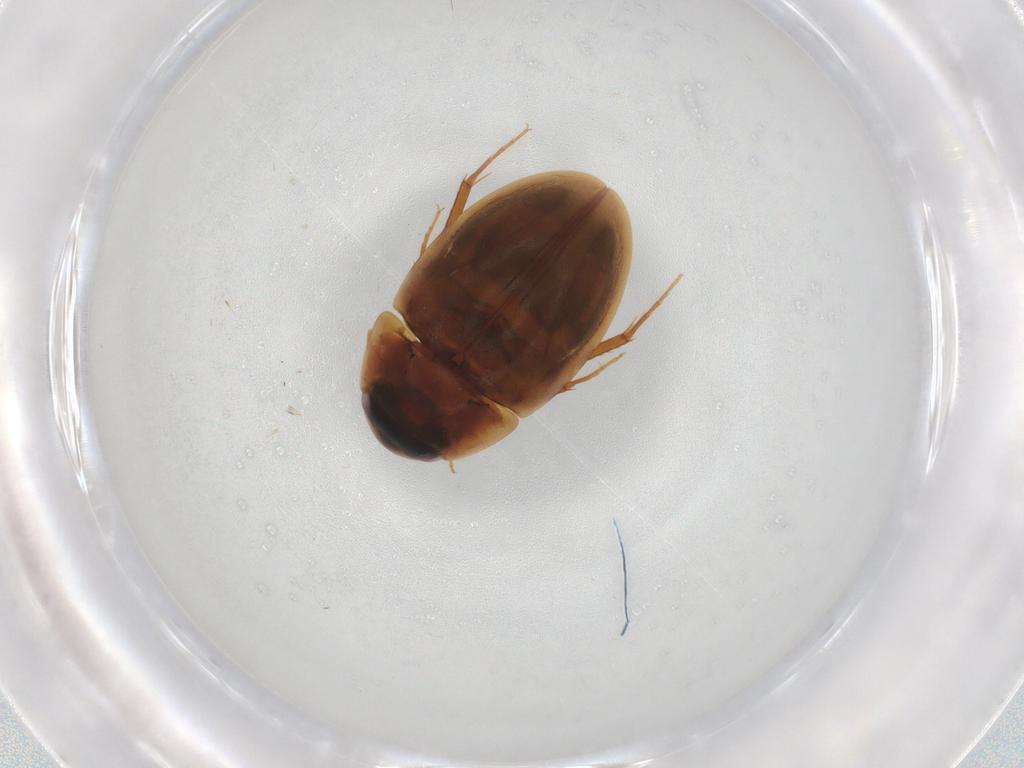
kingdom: Animalia
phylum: Arthropoda
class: Insecta
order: Coleoptera
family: Hydrophilidae
